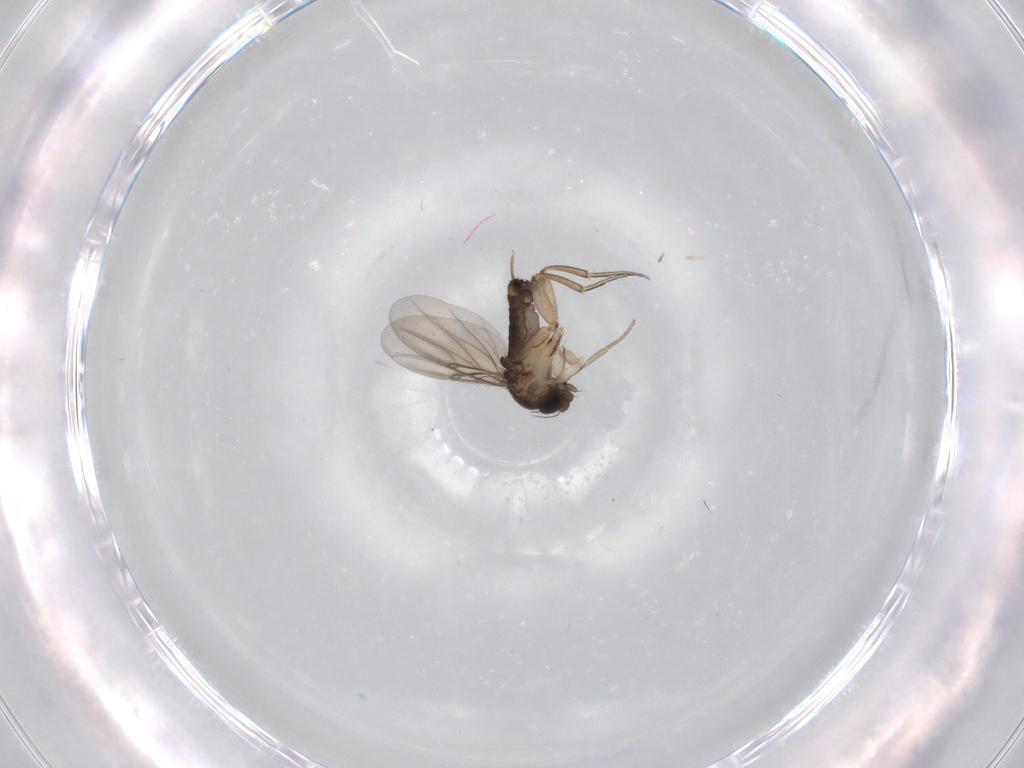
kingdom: Animalia
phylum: Arthropoda
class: Insecta
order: Diptera
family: Phoridae
